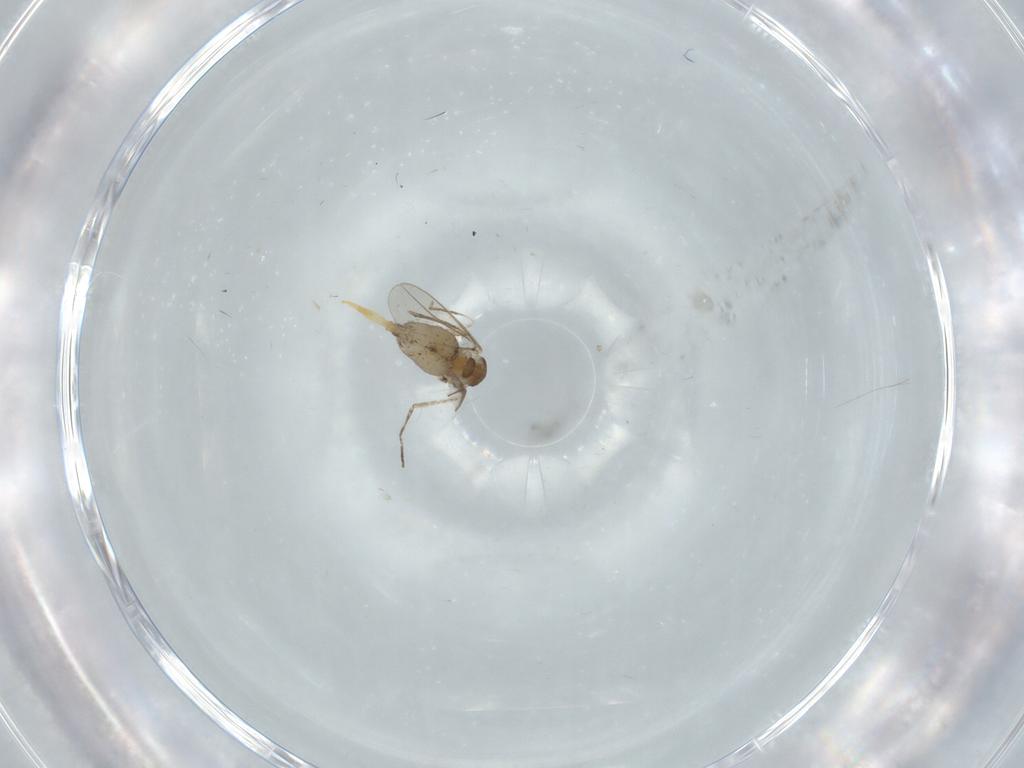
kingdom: Animalia
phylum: Arthropoda
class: Insecta
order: Diptera
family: Cecidomyiidae
